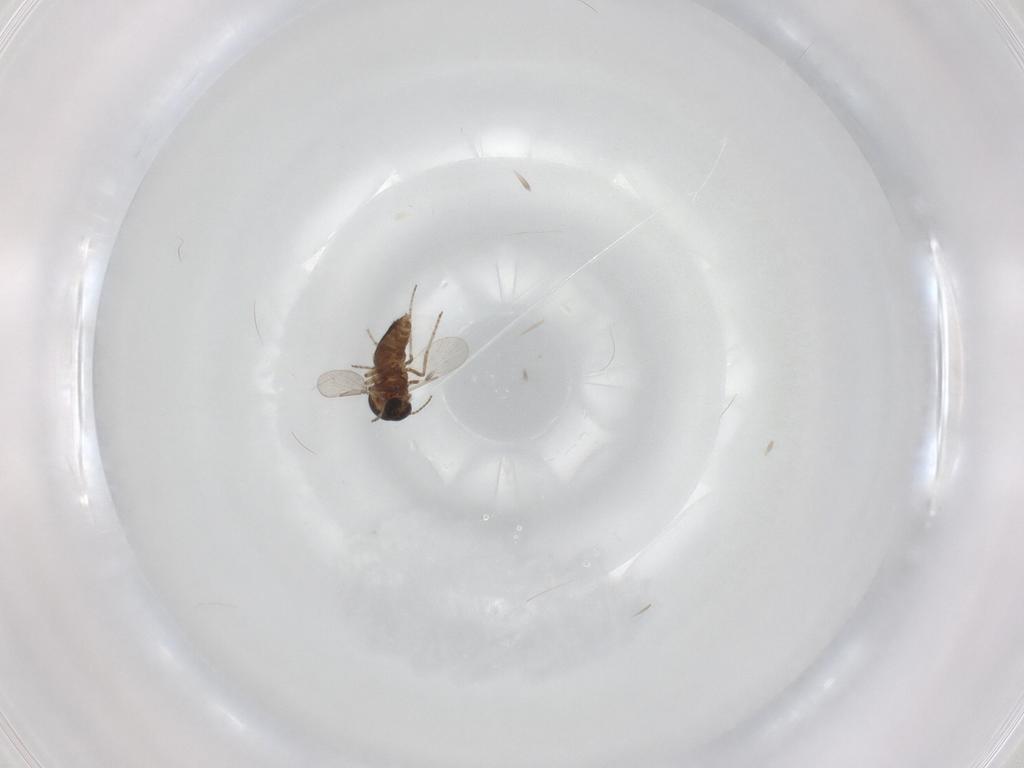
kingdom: Animalia
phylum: Arthropoda
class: Insecta
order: Diptera
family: Ceratopogonidae
